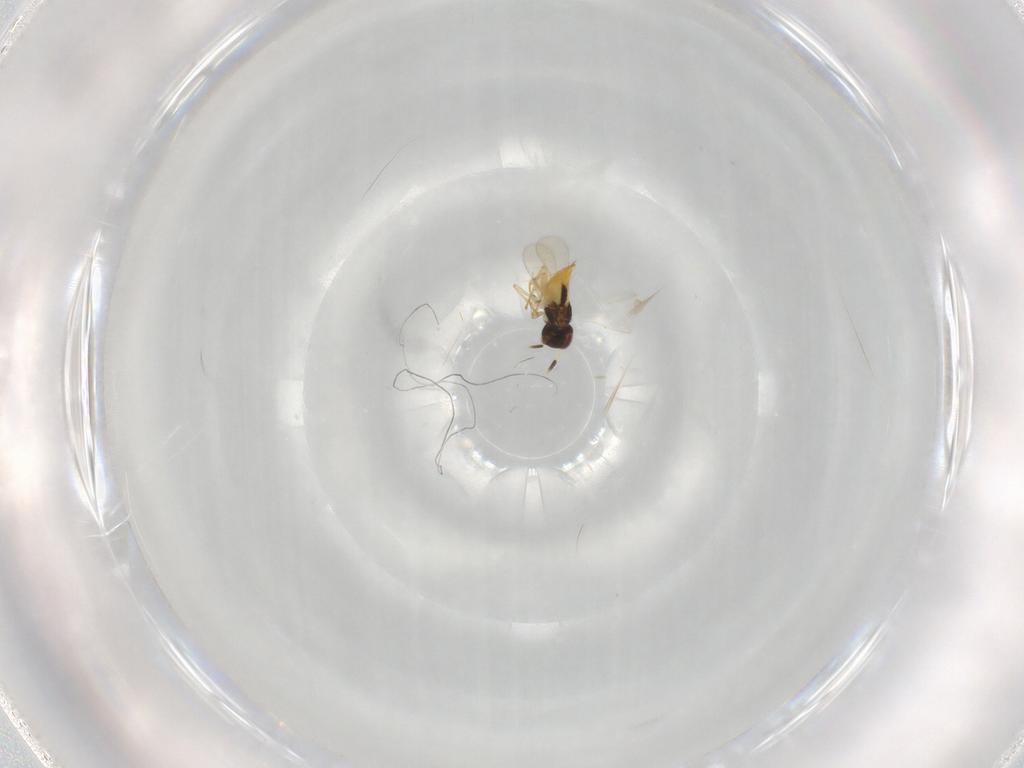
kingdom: Animalia
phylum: Arthropoda
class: Insecta
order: Hymenoptera
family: Aphelinidae
